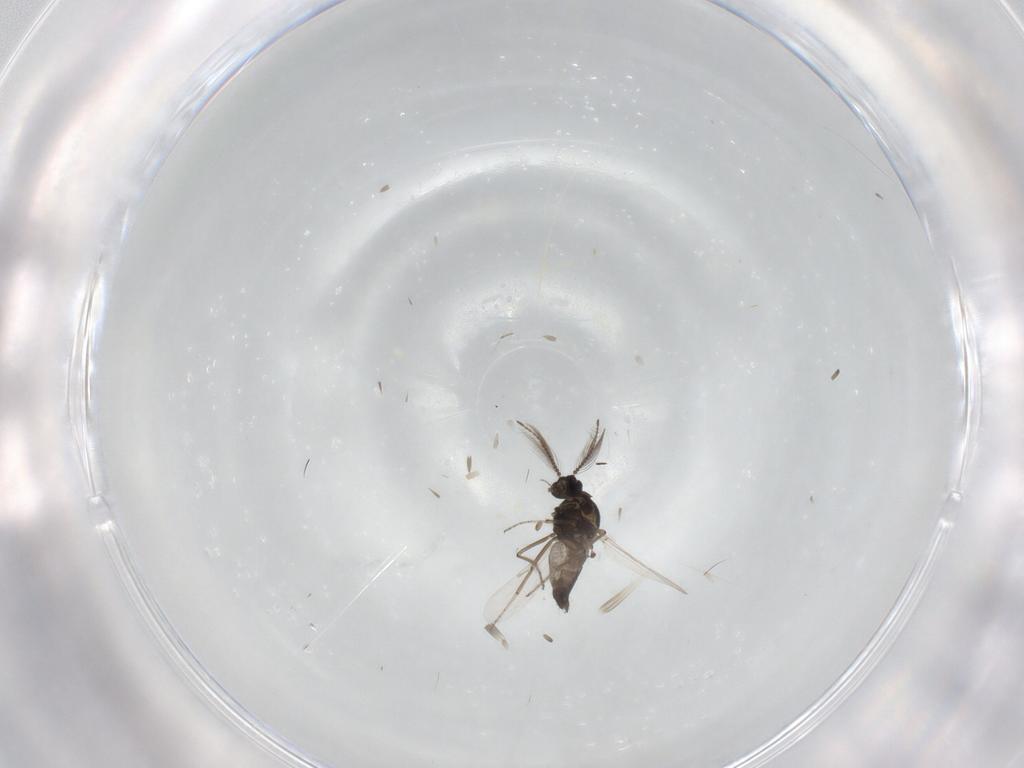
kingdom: Animalia
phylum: Arthropoda
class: Insecta
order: Diptera
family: Ceratopogonidae
